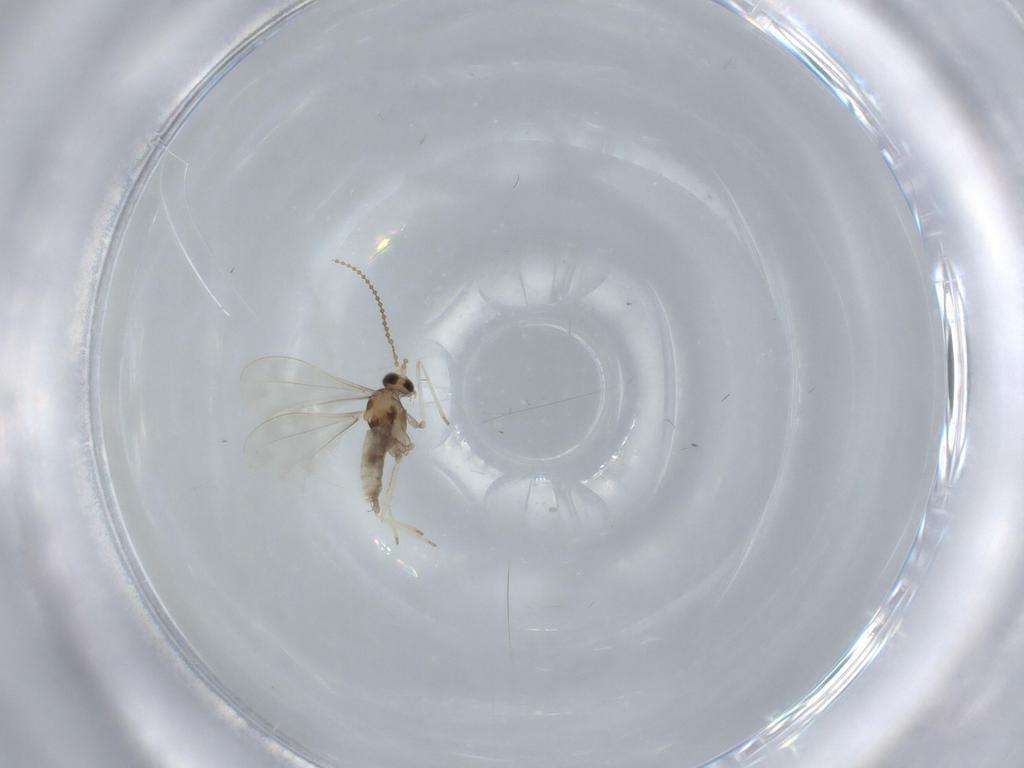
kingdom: Animalia
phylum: Arthropoda
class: Insecta
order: Diptera
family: Cecidomyiidae
